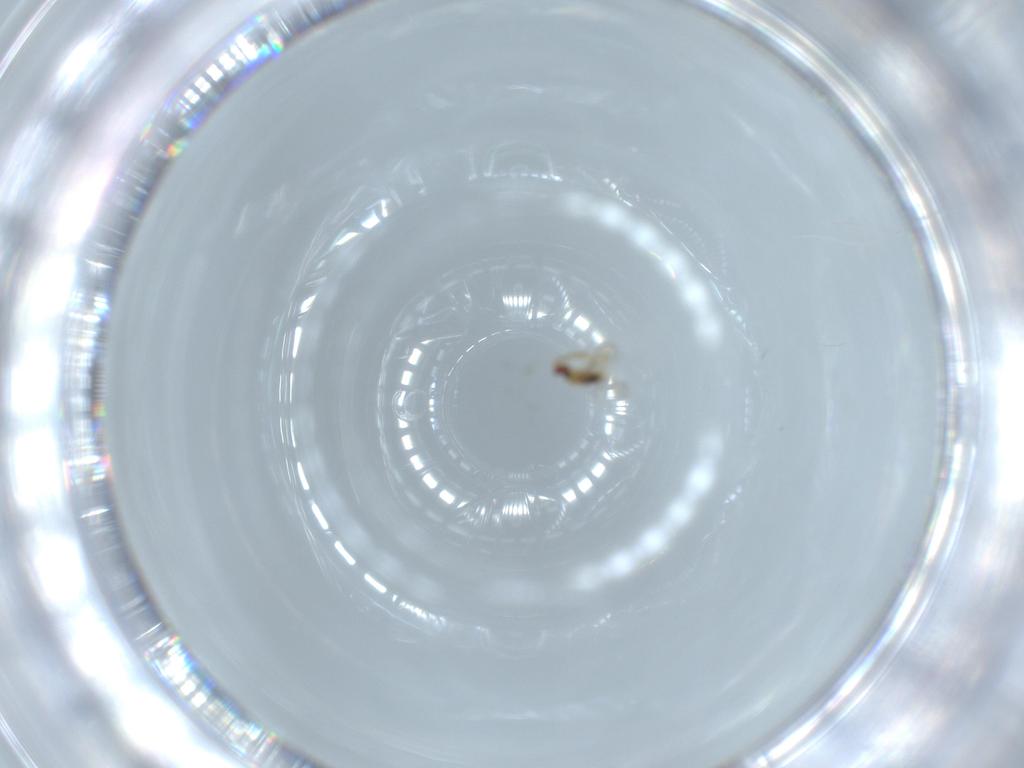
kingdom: Animalia
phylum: Arthropoda
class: Insecta
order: Hymenoptera
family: Aphelinidae
